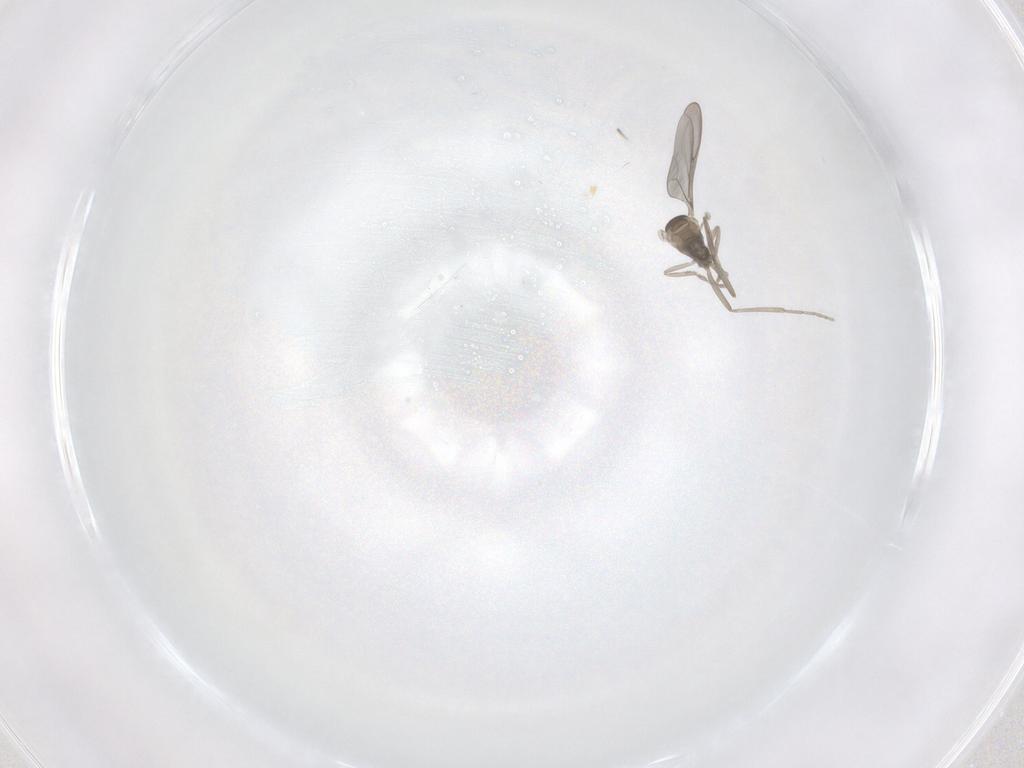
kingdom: Animalia
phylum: Arthropoda
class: Insecta
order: Diptera
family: Cecidomyiidae
